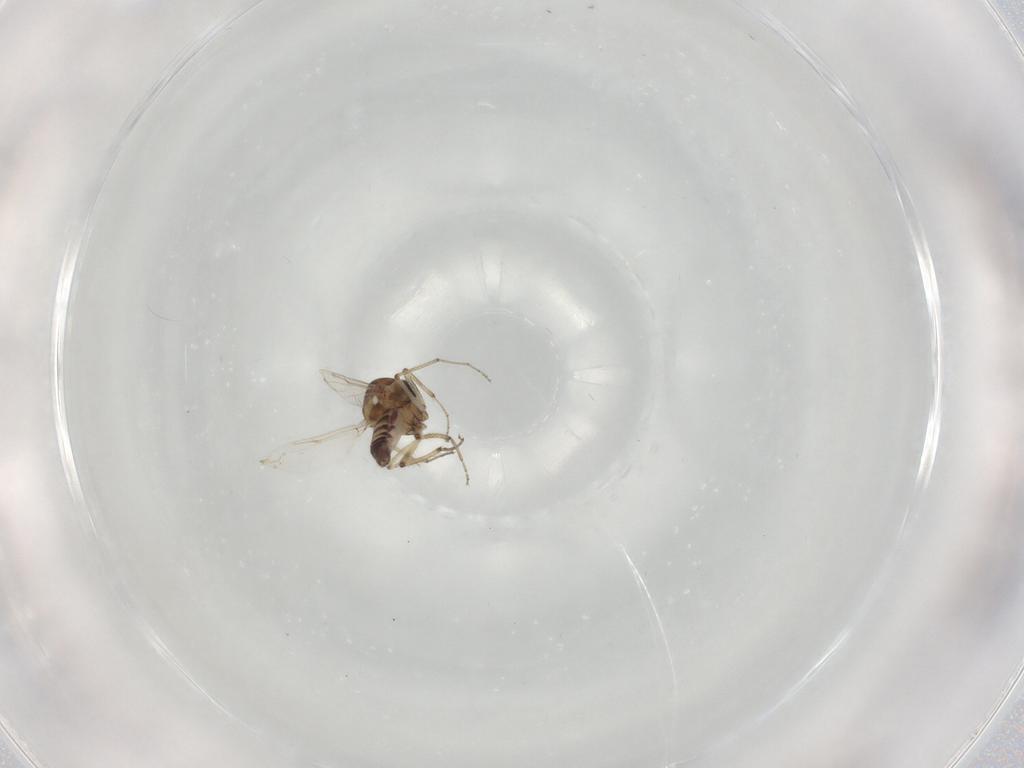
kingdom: Animalia
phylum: Arthropoda
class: Insecta
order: Diptera
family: Ceratopogonidae
